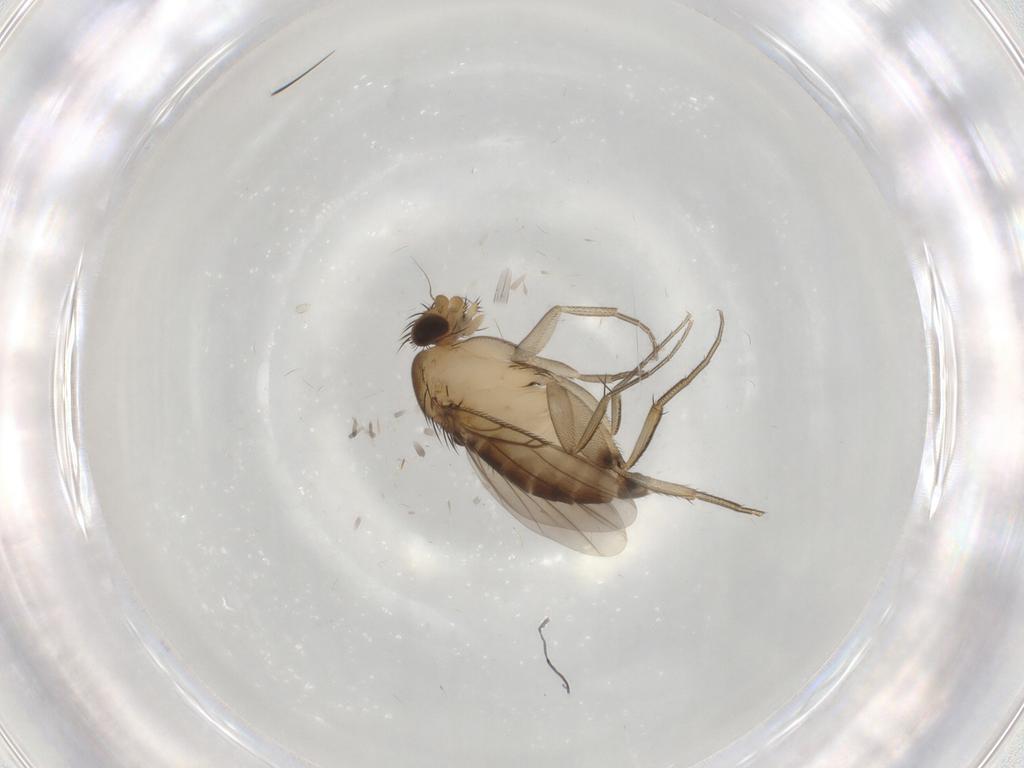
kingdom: Animalia
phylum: Arthropoda
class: Insecta
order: Diptera
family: Phoridae
